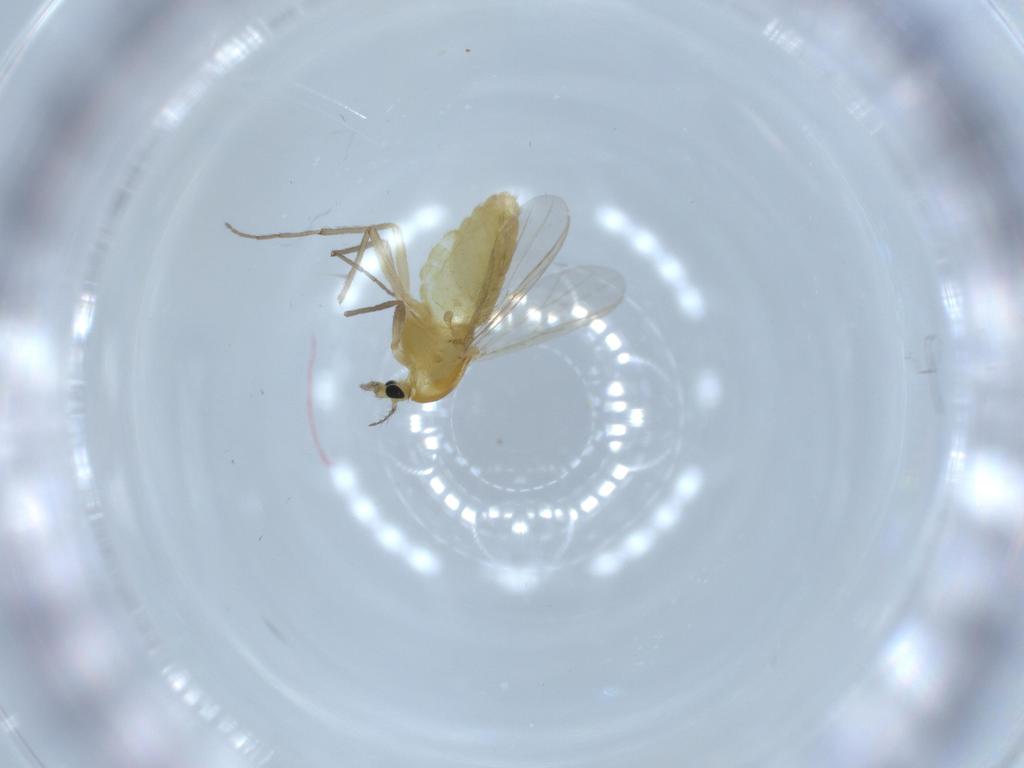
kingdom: Animalia
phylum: Arthropoda
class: Insecta
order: Diptera
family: Chironomidae
